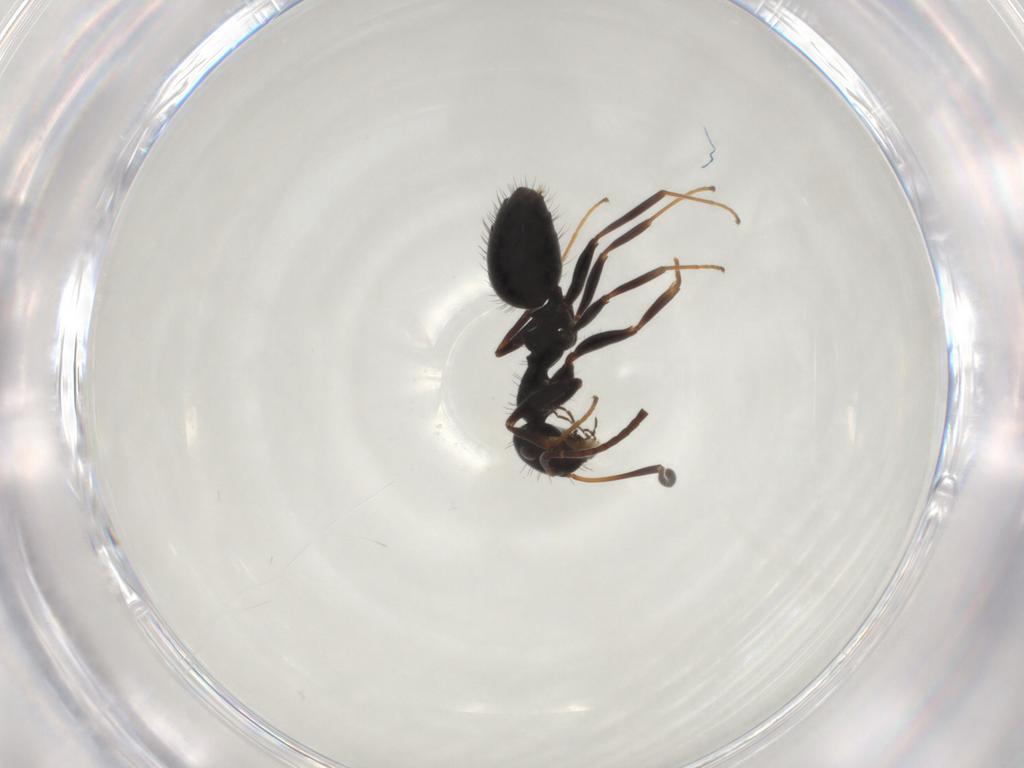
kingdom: Animalia
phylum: Arthropoda
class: Insecta
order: Hymenoptera
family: Formicidae
